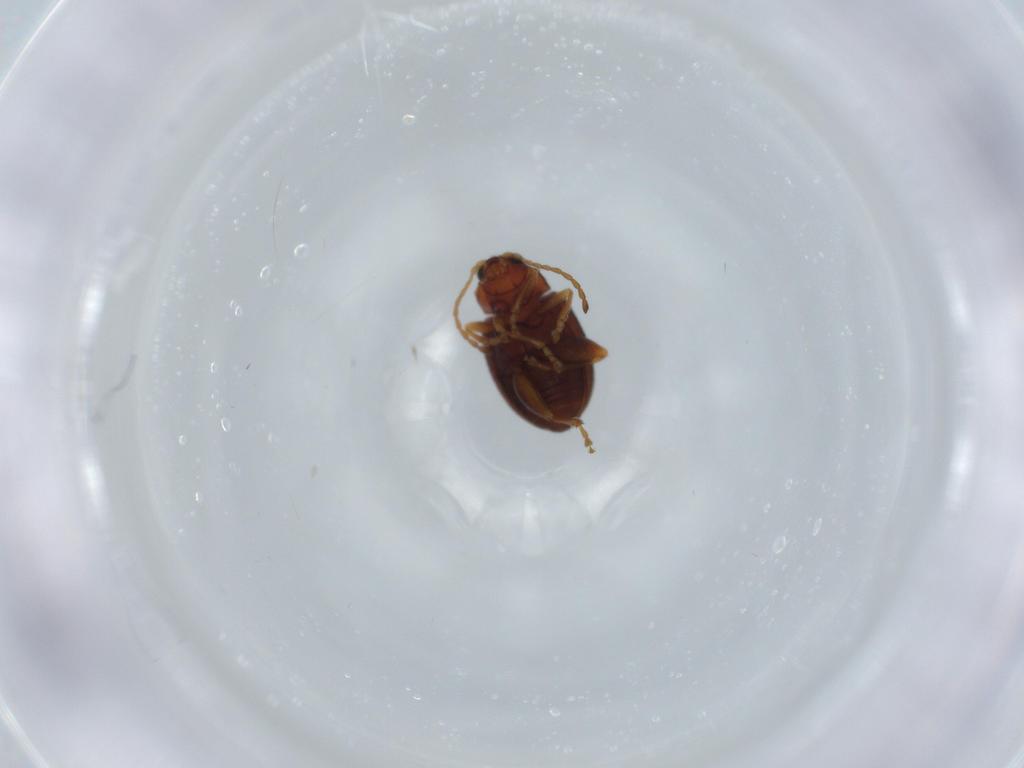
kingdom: Animalia
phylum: Arthropoda
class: Insecta
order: Coleoptera
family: Chrysomelidae
